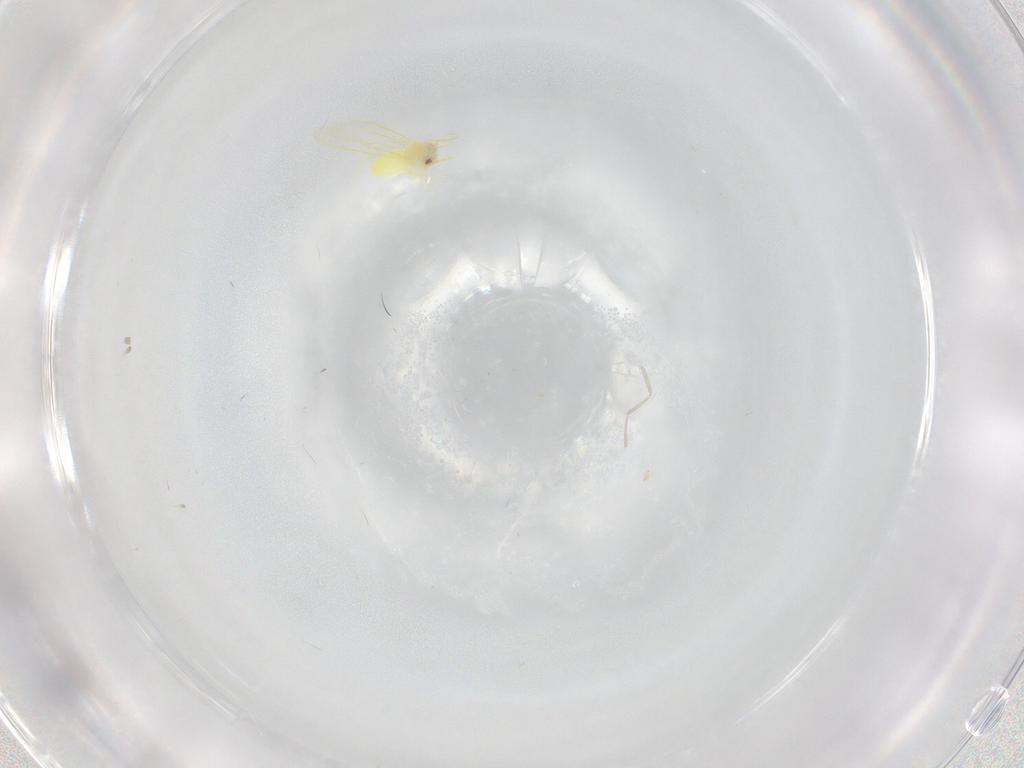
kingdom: Animalia
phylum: Arthropoda
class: Insecta
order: Hemiptera
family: Aleyrodidae
